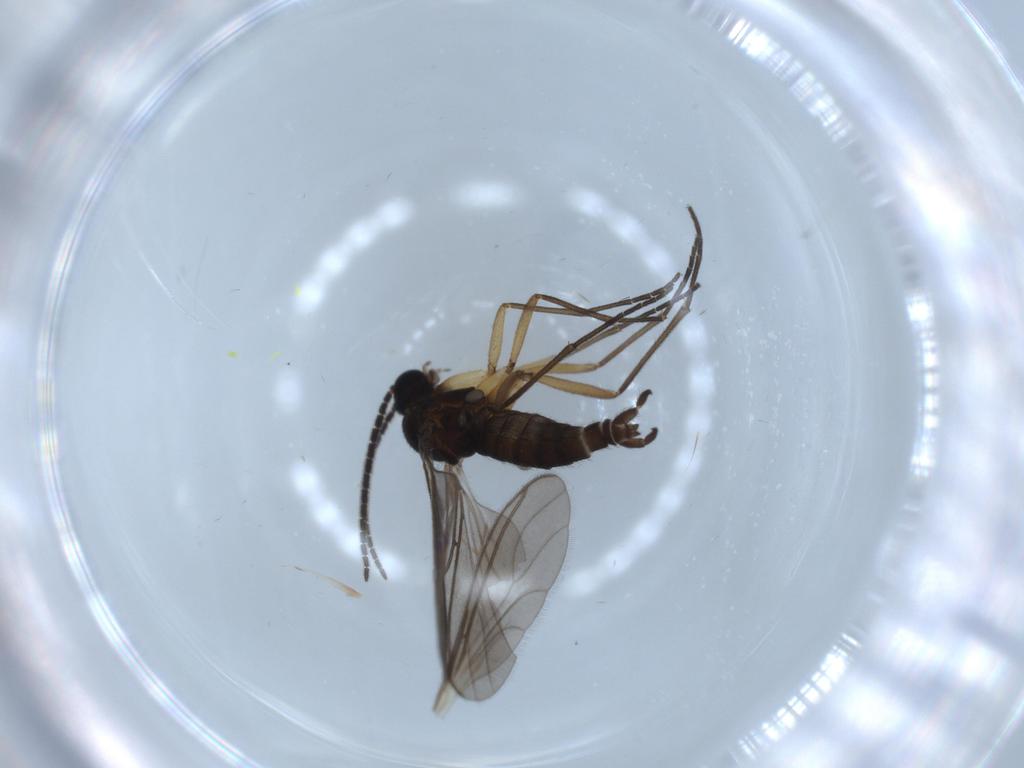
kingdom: Animalia
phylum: Arthropoda
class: Insecta
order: Diptera
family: Sciaridae
